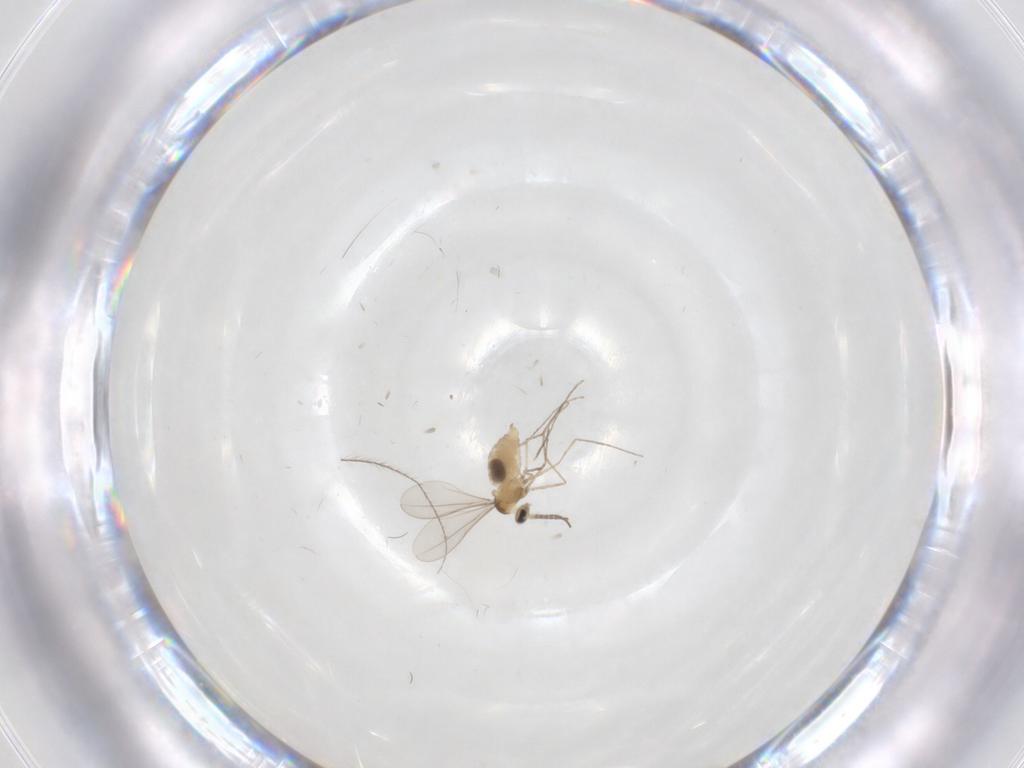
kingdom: Animalia
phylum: Arthropoda
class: Insecta
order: Diptera
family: Cecidomyiidae
